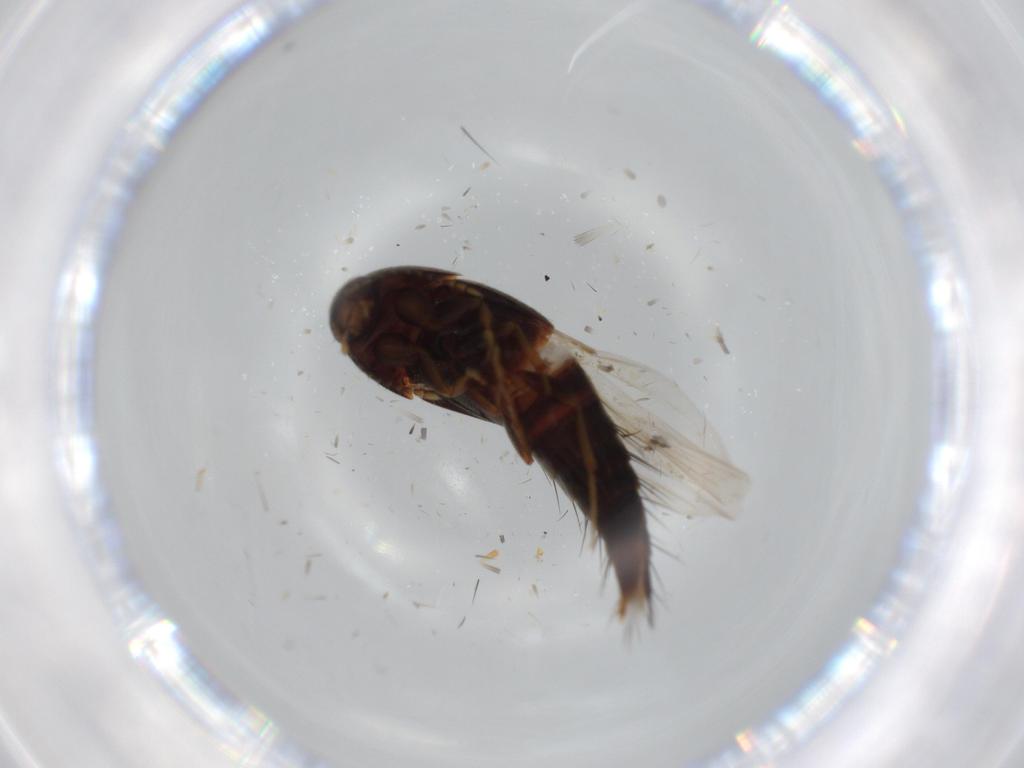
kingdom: Animalia
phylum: Arthropoda
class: Insecta
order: Coleoptera
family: Staphylinidae
